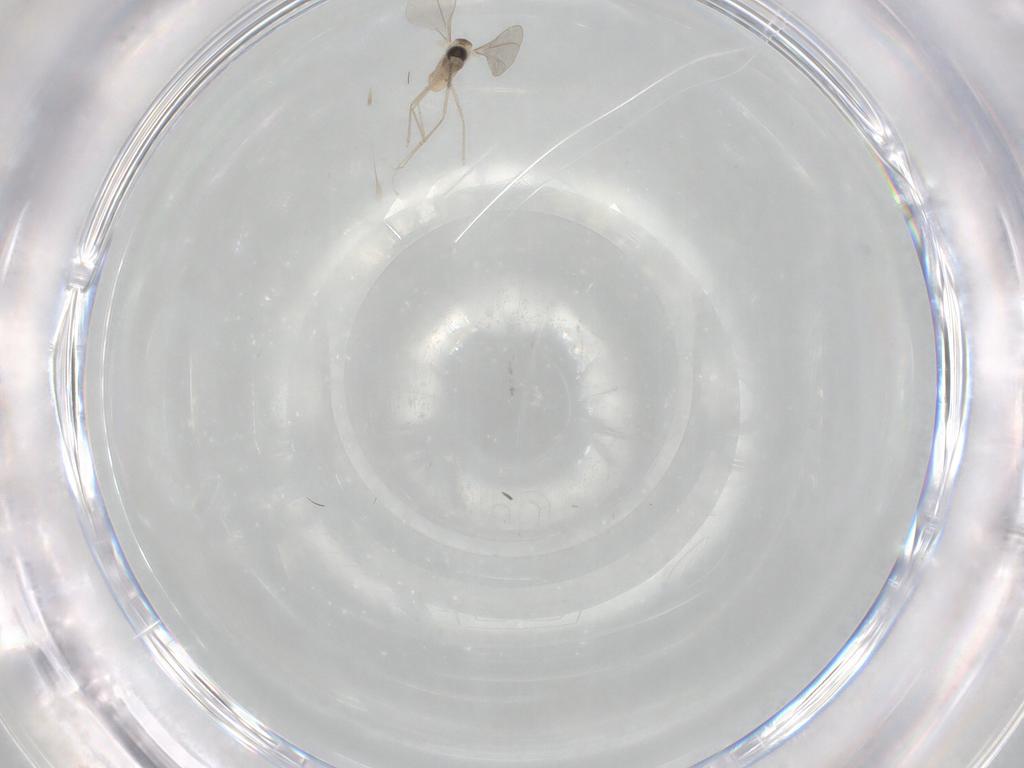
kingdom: Animalia
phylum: Arthropoda
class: Insecta
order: Diptera
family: Cecidomyiidae
